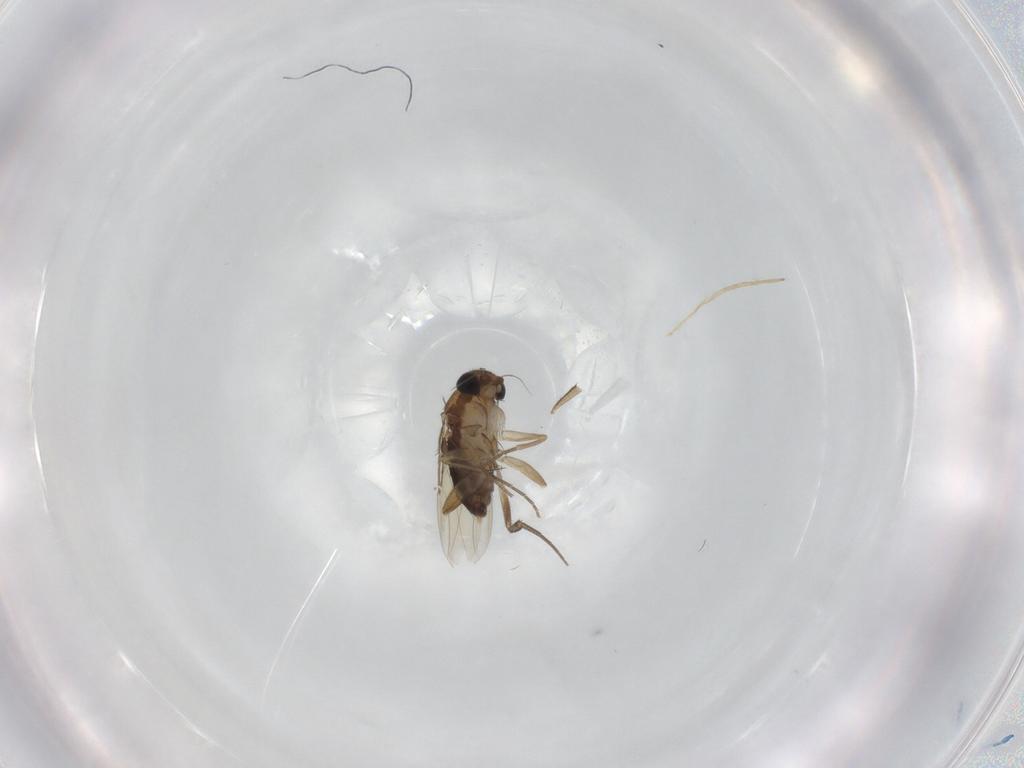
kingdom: Animalia
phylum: Arthropoda
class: Insecta
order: Diptera
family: Phoridae
